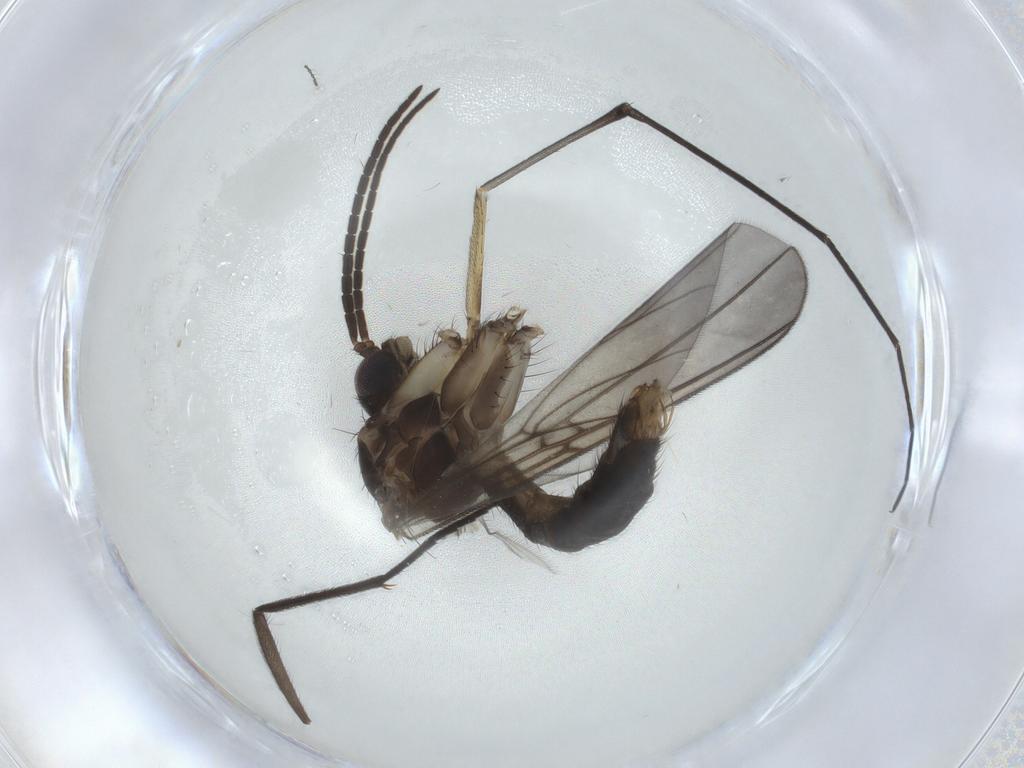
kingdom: Animalia
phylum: Arthropoda
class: Insecta
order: Diptera
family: Mycetophilidae
